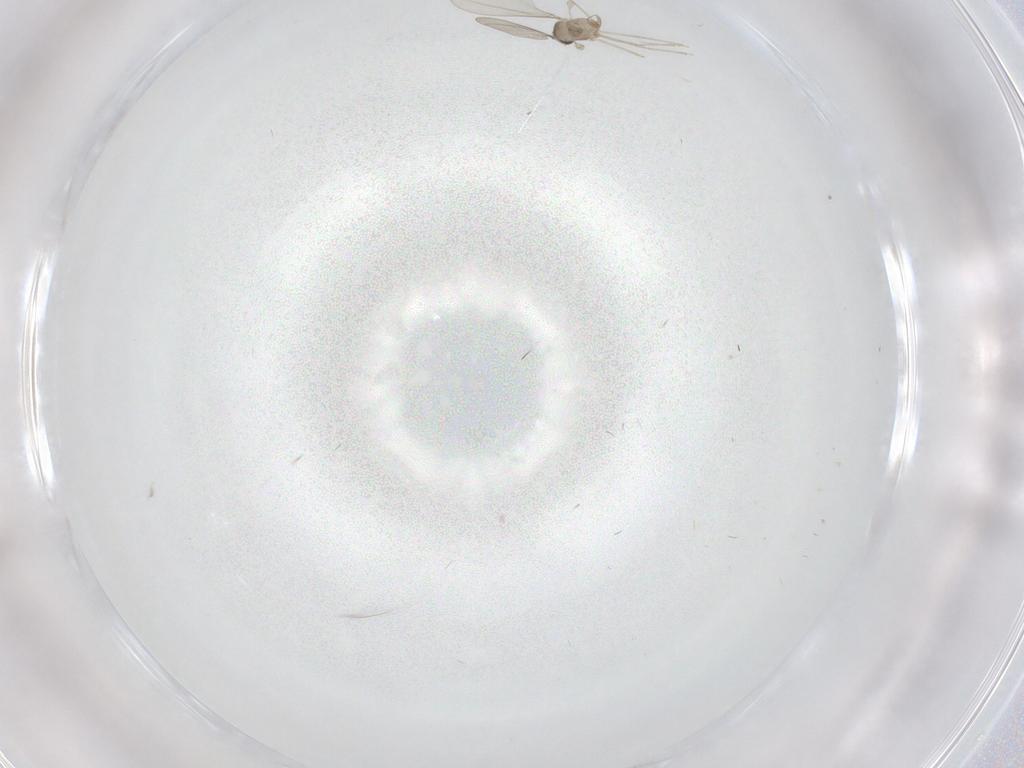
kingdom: Animalia
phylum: Arthropoda
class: Insecta
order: Diptera
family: Cecidomyiidae
